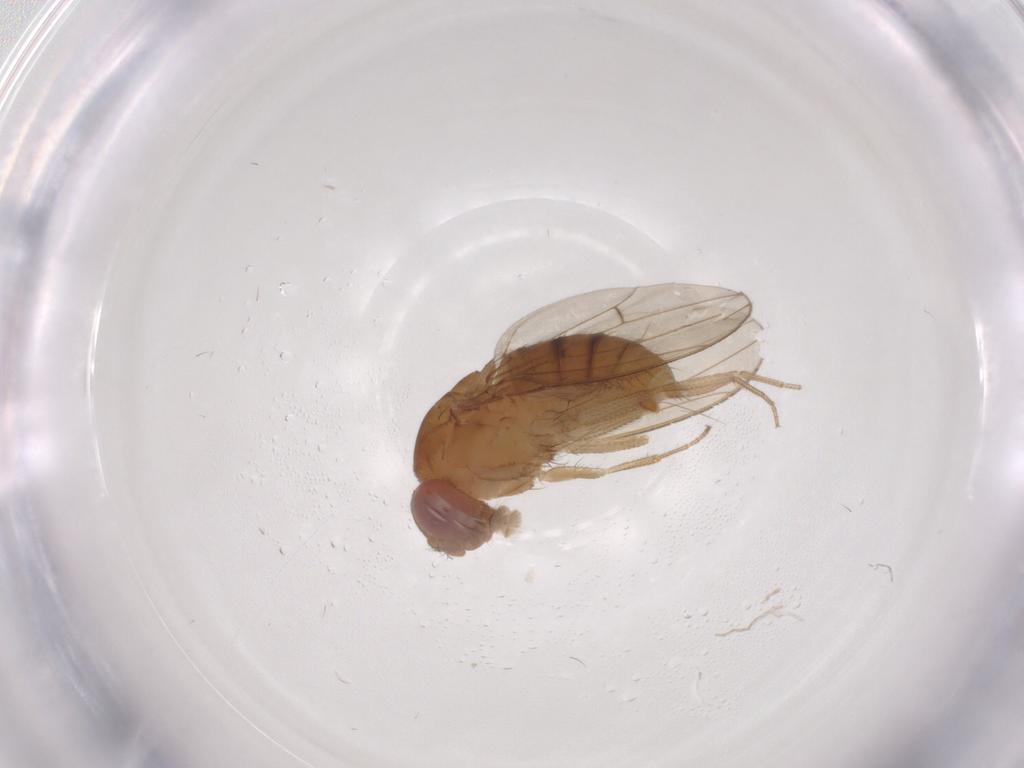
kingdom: Animalia
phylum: Arthropoda
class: Insecta
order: Diptera
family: Drosophilidae
